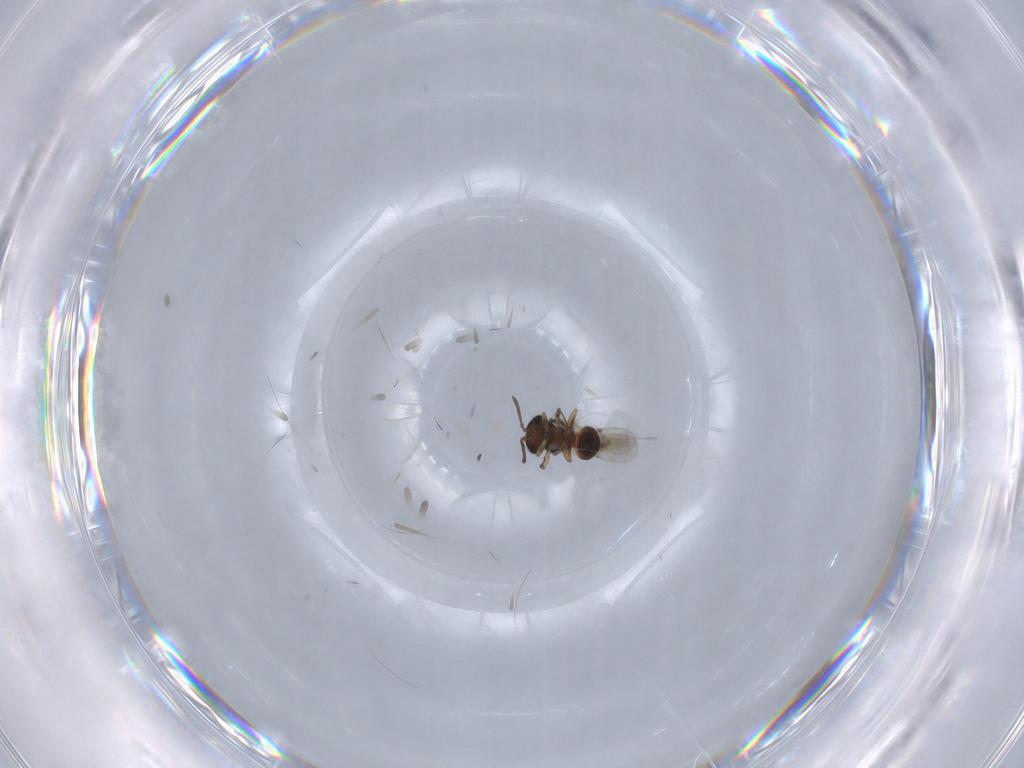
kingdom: Animalia
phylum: Arthropoda
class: Insecta
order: Hymenoptera
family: Scelionidae
